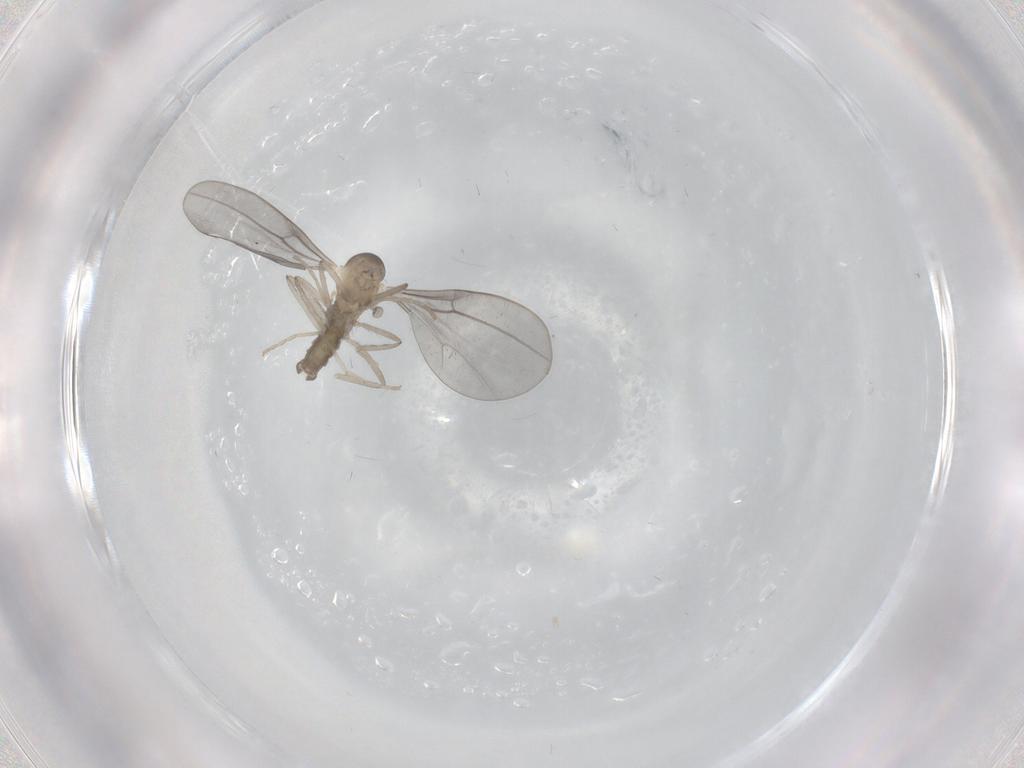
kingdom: Animalia
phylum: Arthropoda
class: Insecta
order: Diptera
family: Cecidomyiidae
